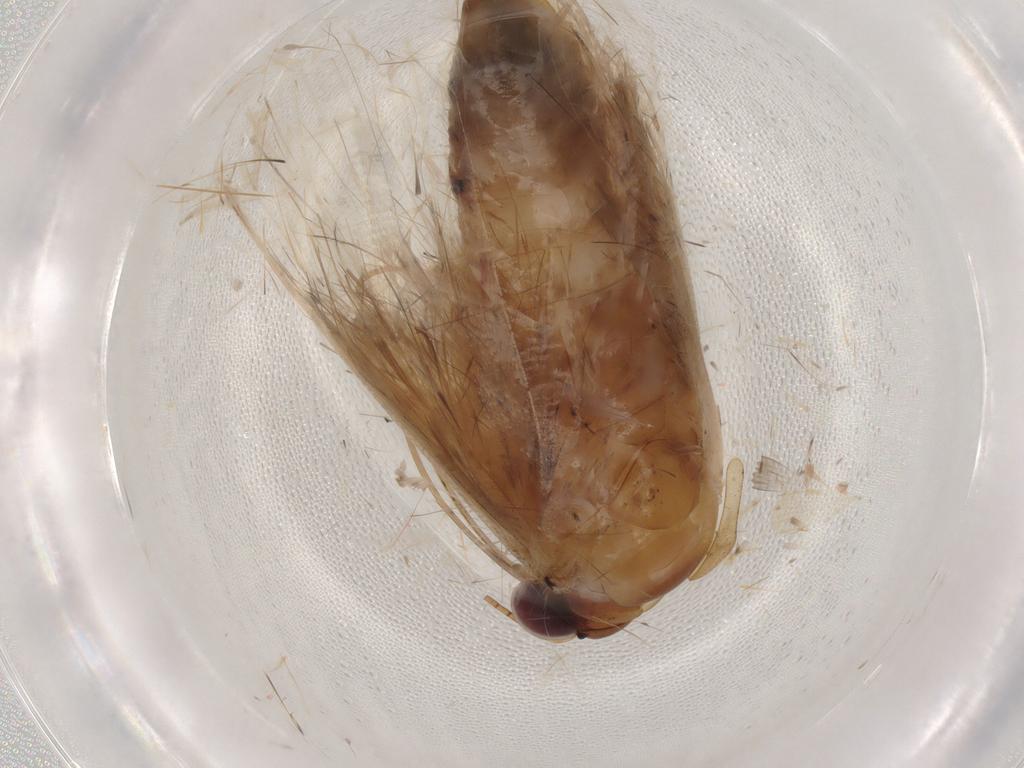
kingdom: Animalia
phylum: Arthropoda
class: Insecta
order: Lepidoptera
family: Erebidae
